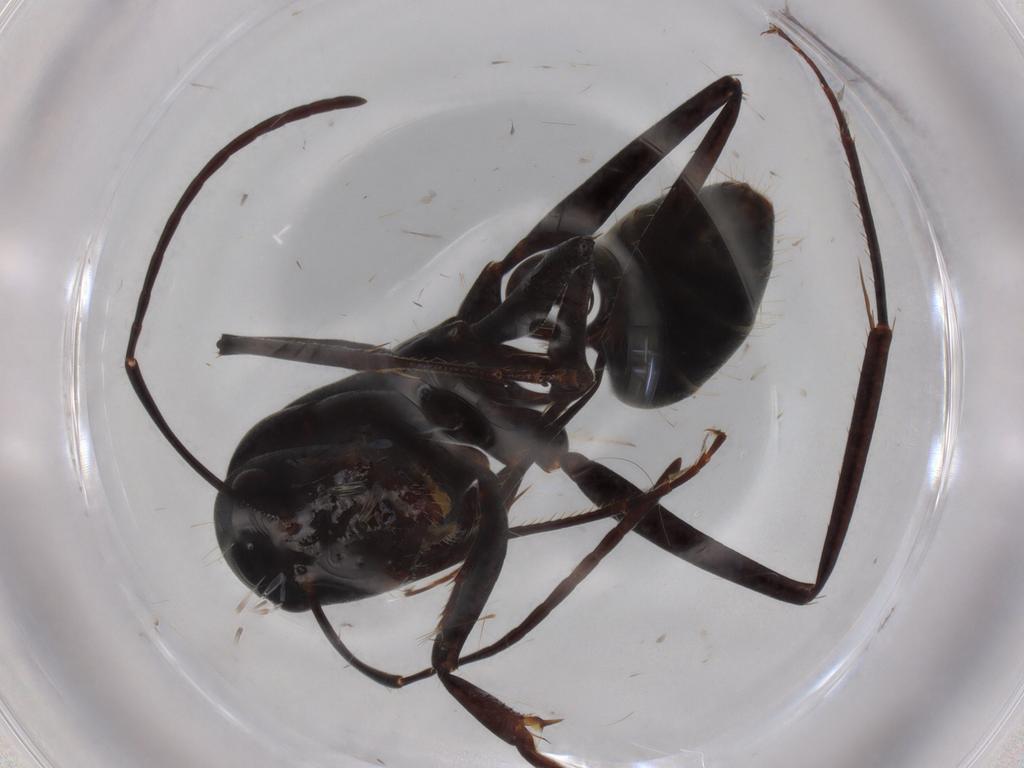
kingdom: Animalia
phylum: Arthropoda
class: Insecta
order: Hymenoptera
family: Formicidae
